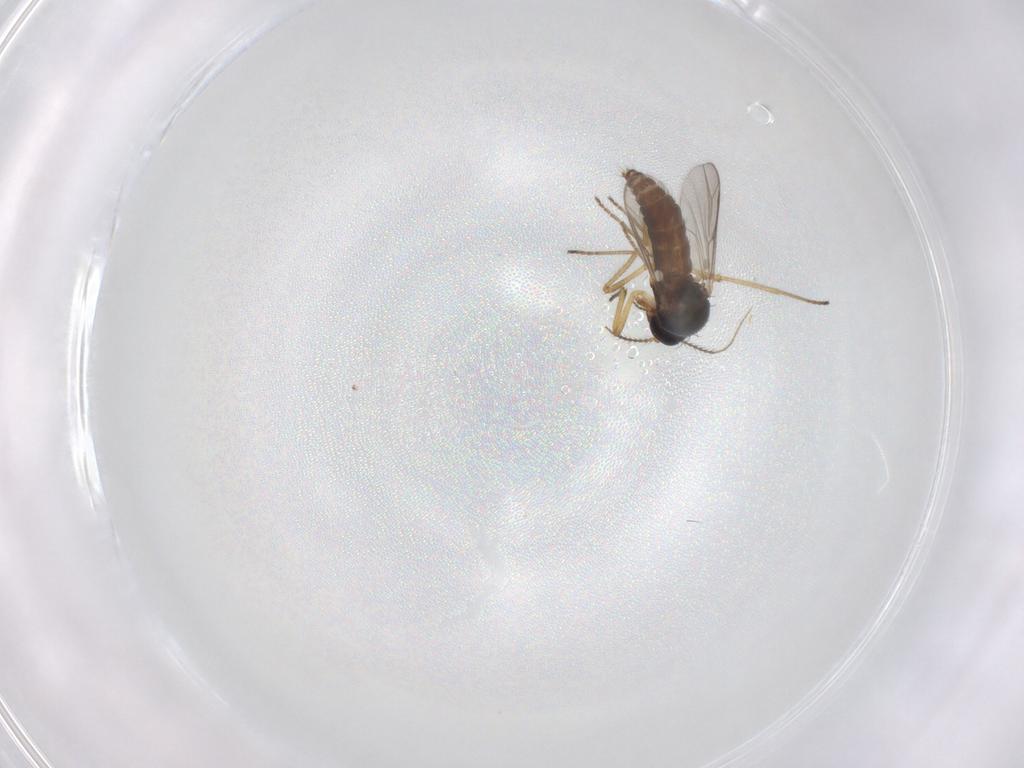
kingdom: Animalia
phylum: Arthropoda
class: Insecta
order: Diptera
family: Ceratopogonidae
